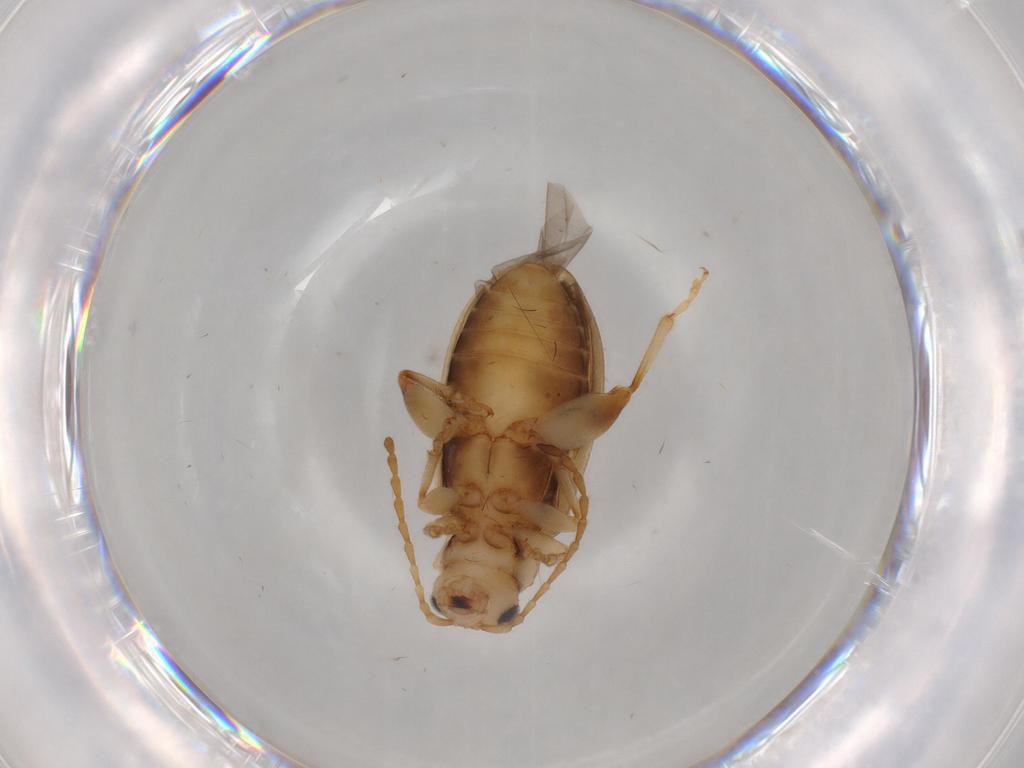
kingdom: Animalia
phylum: Arthropoda
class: Insecta
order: Coleoptera
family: Chrysomelidae
